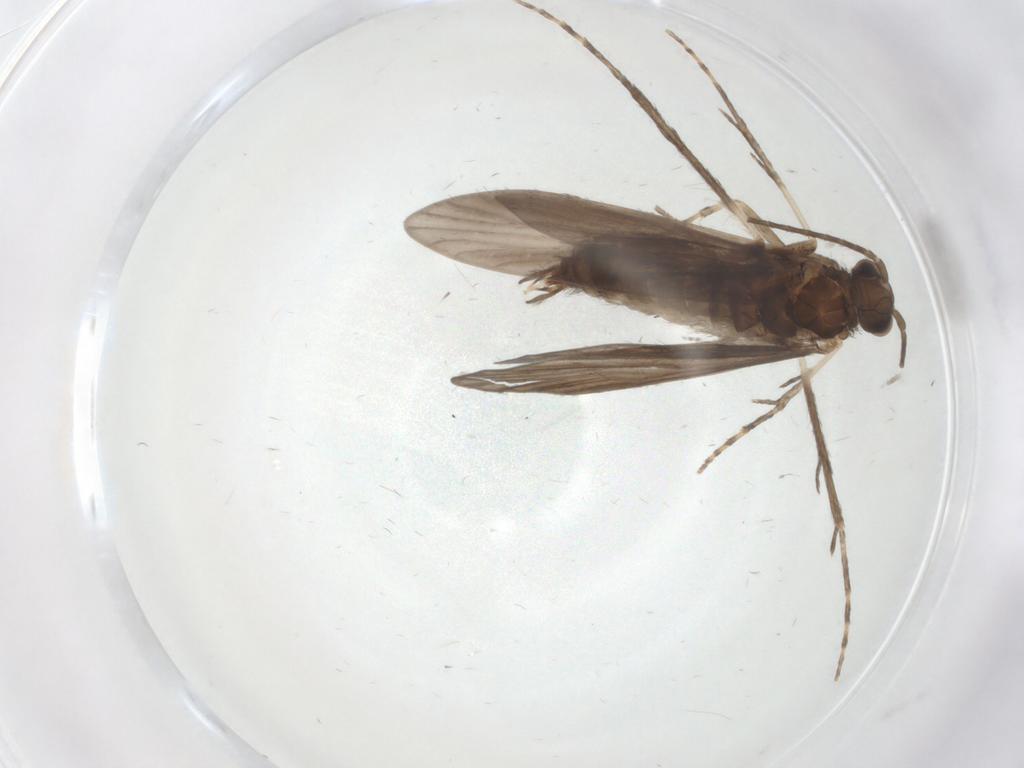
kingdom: Animalia
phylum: Arthropoda
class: Insecta
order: Trichoptera
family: Xiphocentronidae
